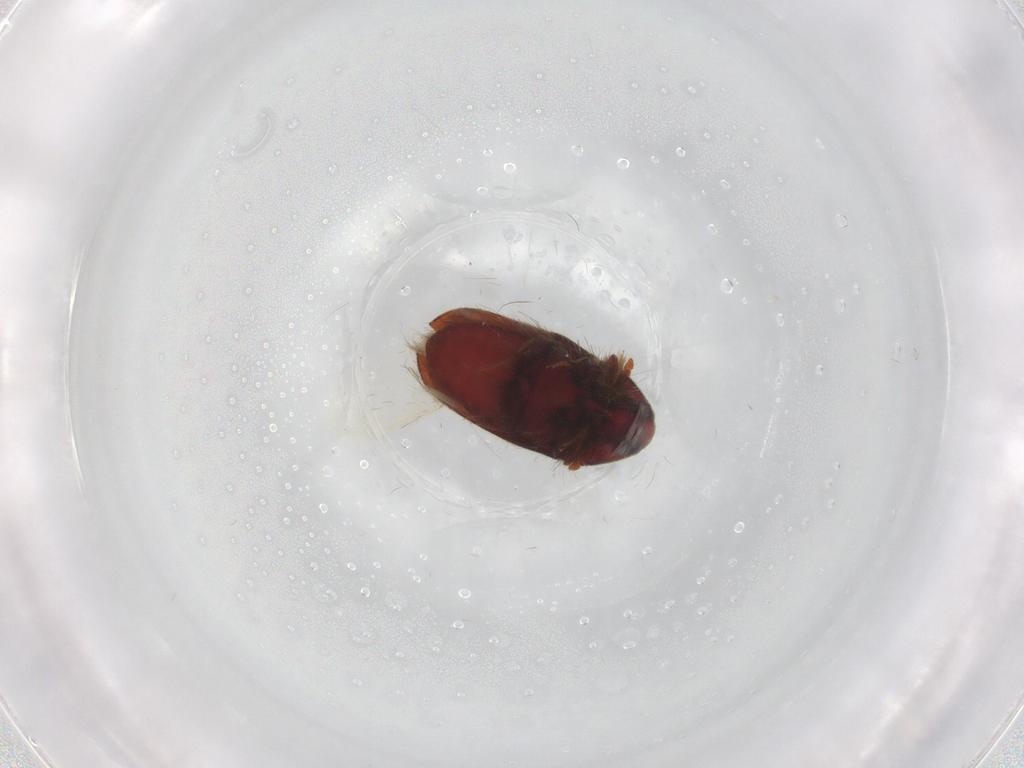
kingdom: Animalia
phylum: Arthropoda
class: Insecta
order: Coleoptera
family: Throscidae
